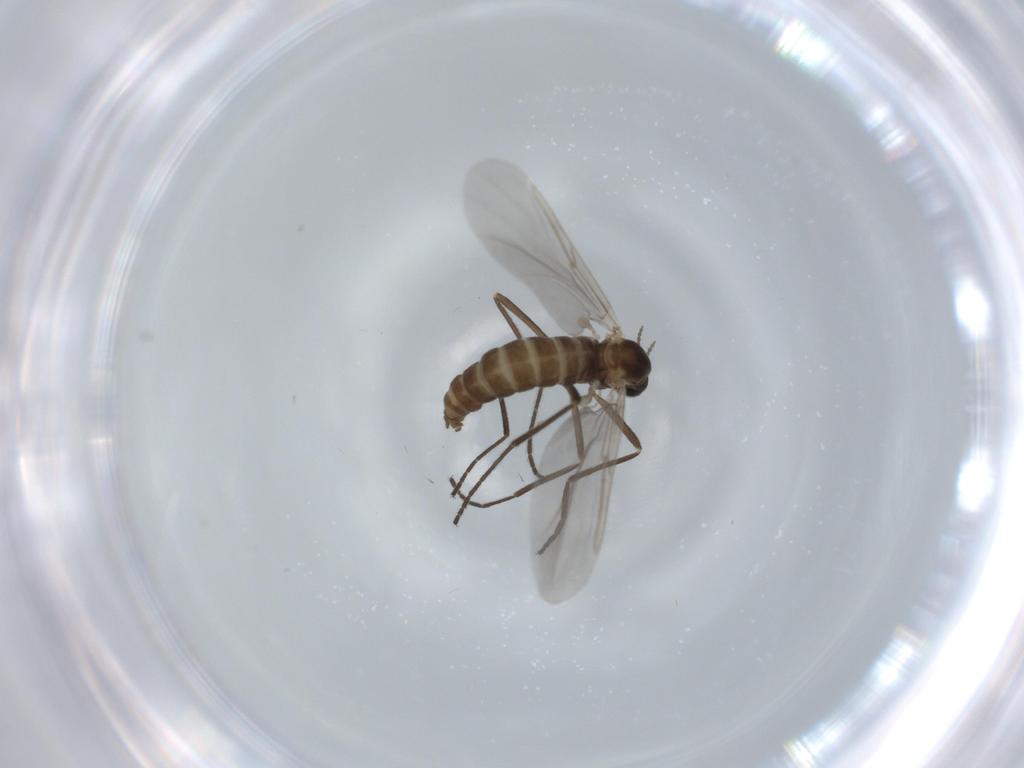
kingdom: Animalia
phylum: Arthropoda
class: Insecta
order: Diptera
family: Cecidomyiidae
